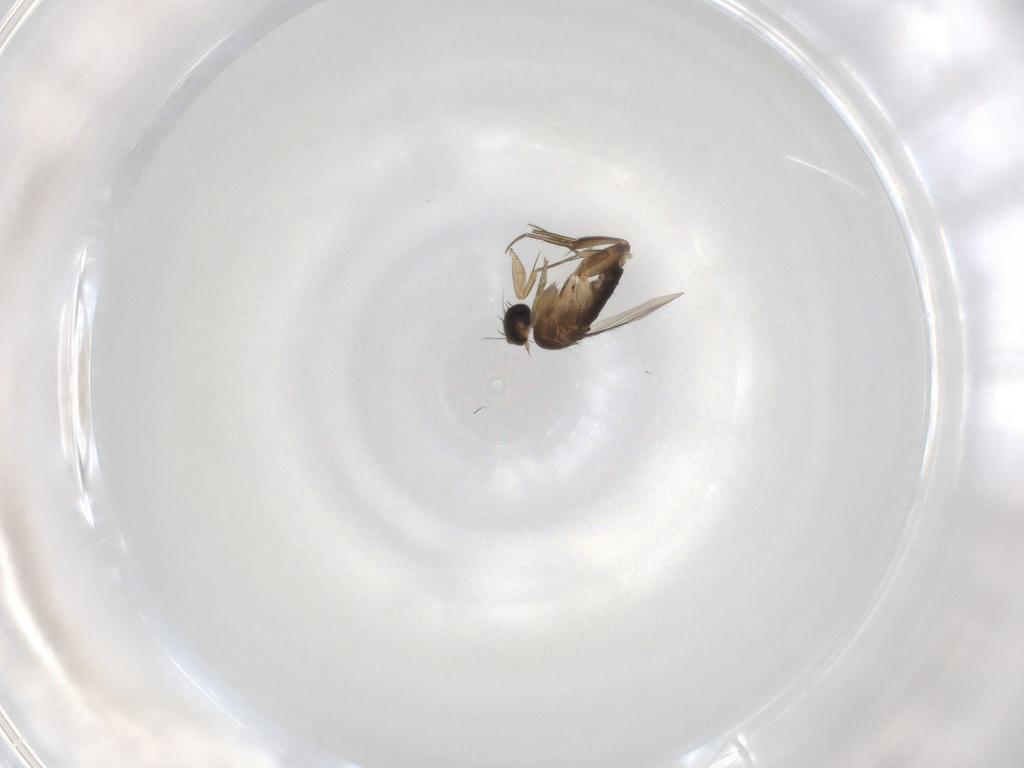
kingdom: Animalia
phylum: Arthropoda
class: Insecta
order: Diptera
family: Phoridae
